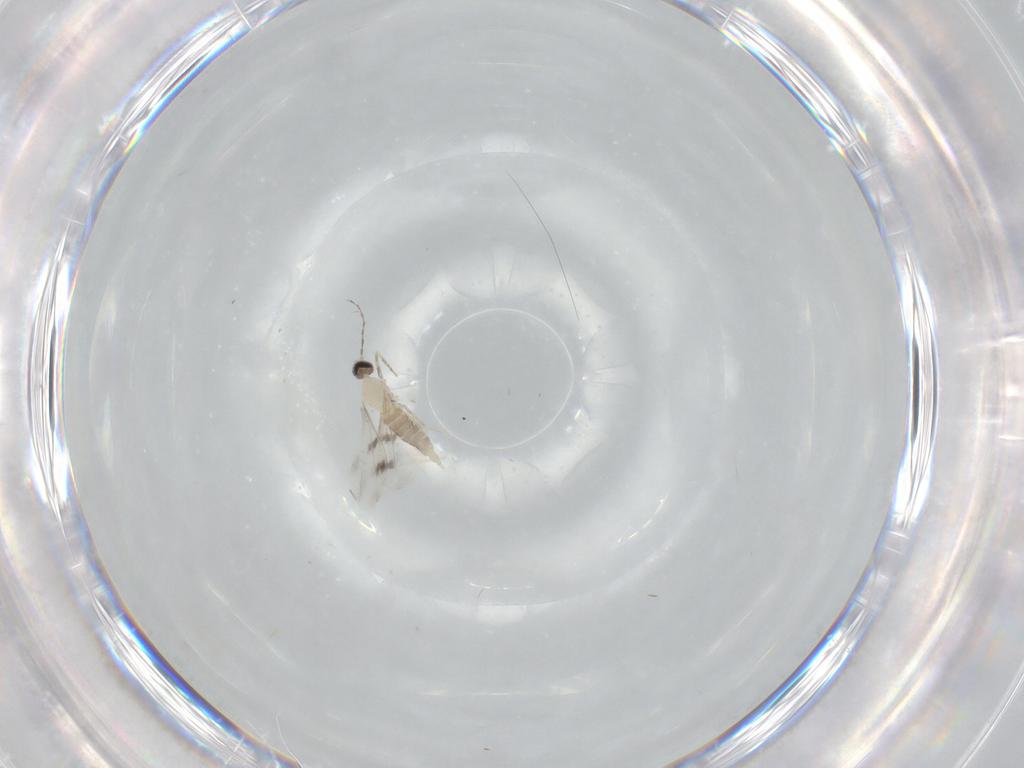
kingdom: Animalia
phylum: Arthropoda
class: Insecta
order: Diptera
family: Cecidomyiidae
